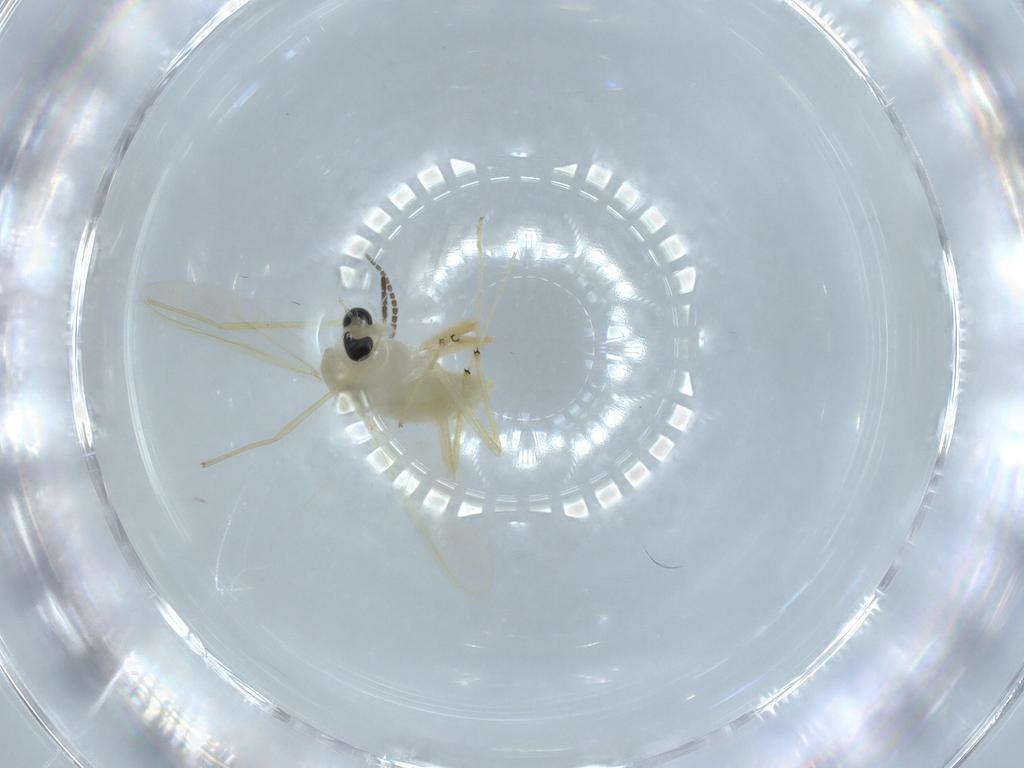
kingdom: Animalia
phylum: Arthropoda
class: Insecta
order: Diptera
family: Chironomidae
